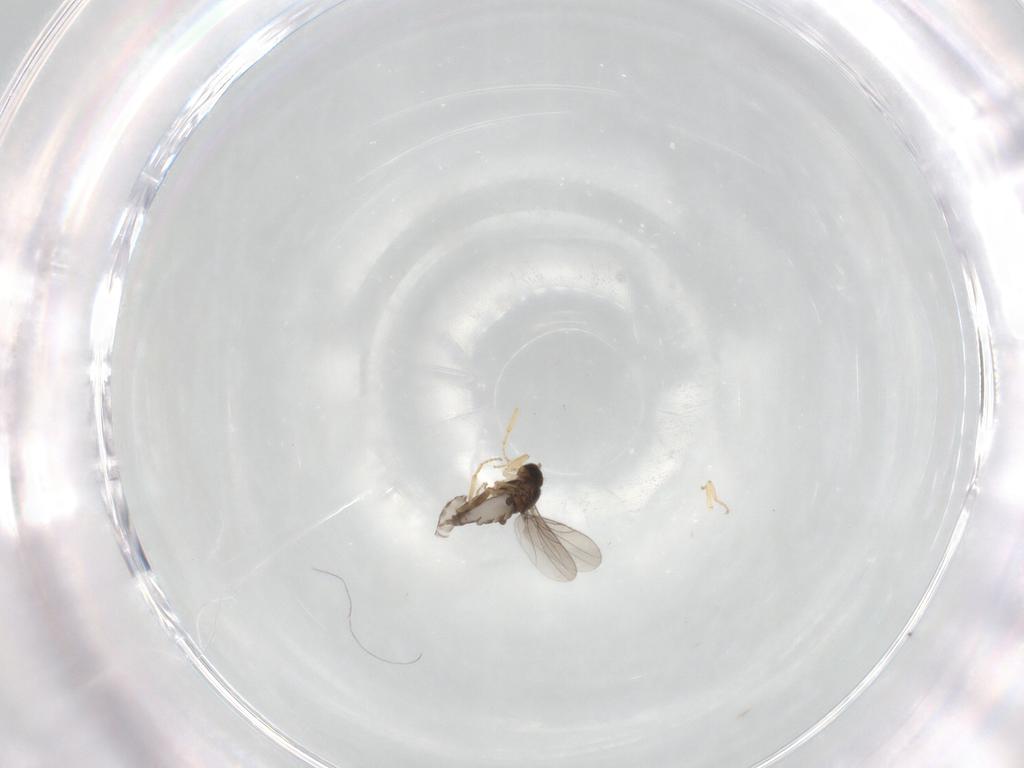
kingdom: Animalia
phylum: Arthropoda
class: Insecta
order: Diptera
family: Hybotidae
